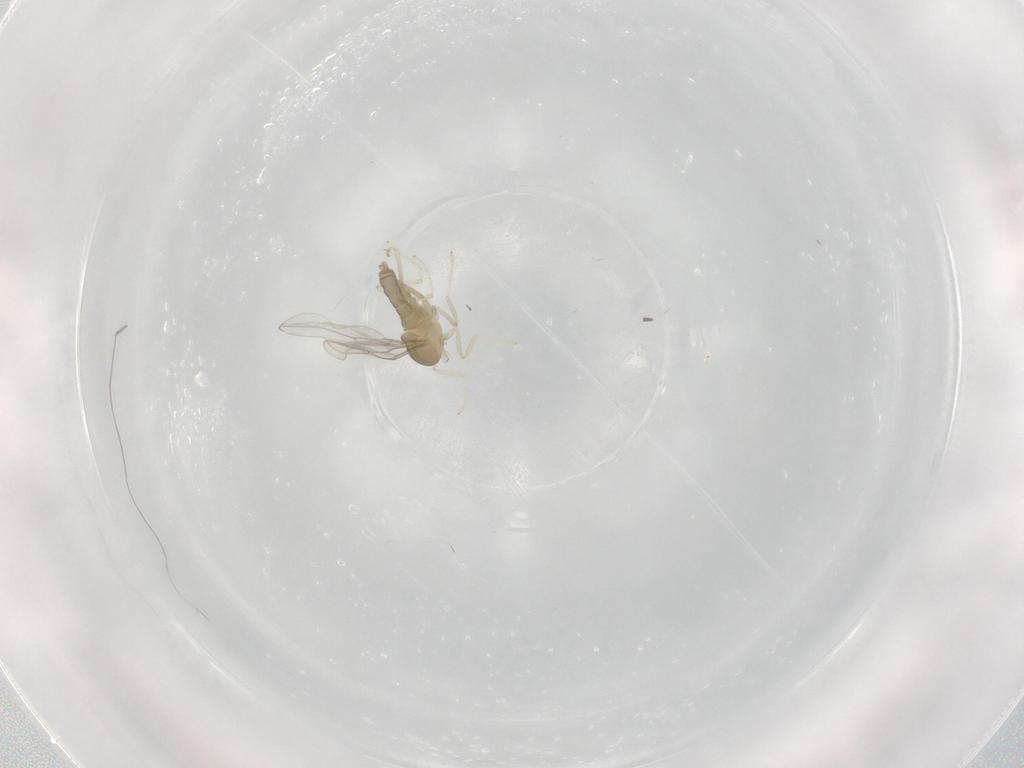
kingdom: Animalia
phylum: Arthropoda
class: Insecta
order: Diptera
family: Cecidomyiidae
